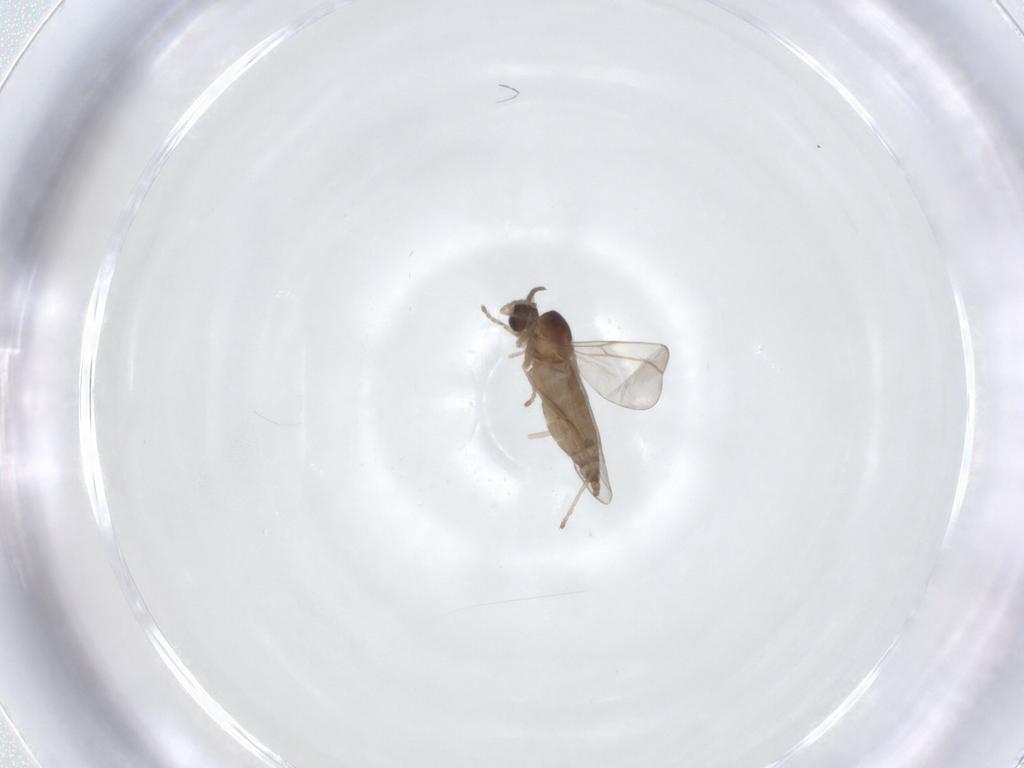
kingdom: Animalia
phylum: Arthropoda
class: Insecta
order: Diptera
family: Cecidomyiidae
